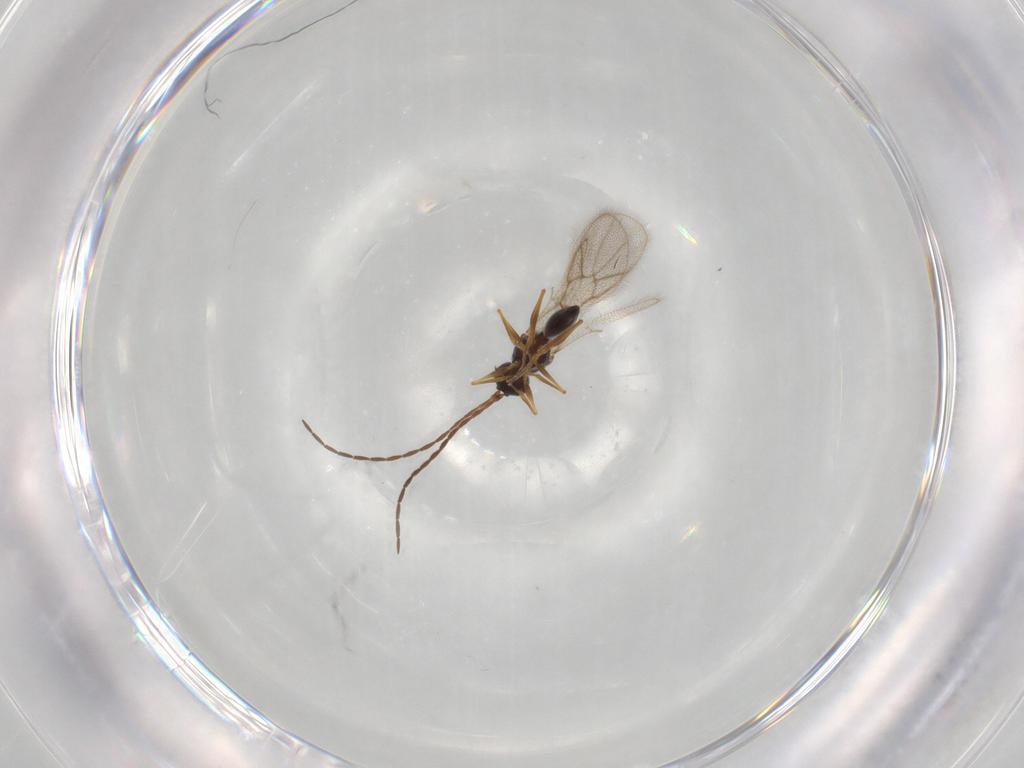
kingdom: Animalia
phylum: Arthropoda
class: Insecta
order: Hymenoptera
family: Figitidae
